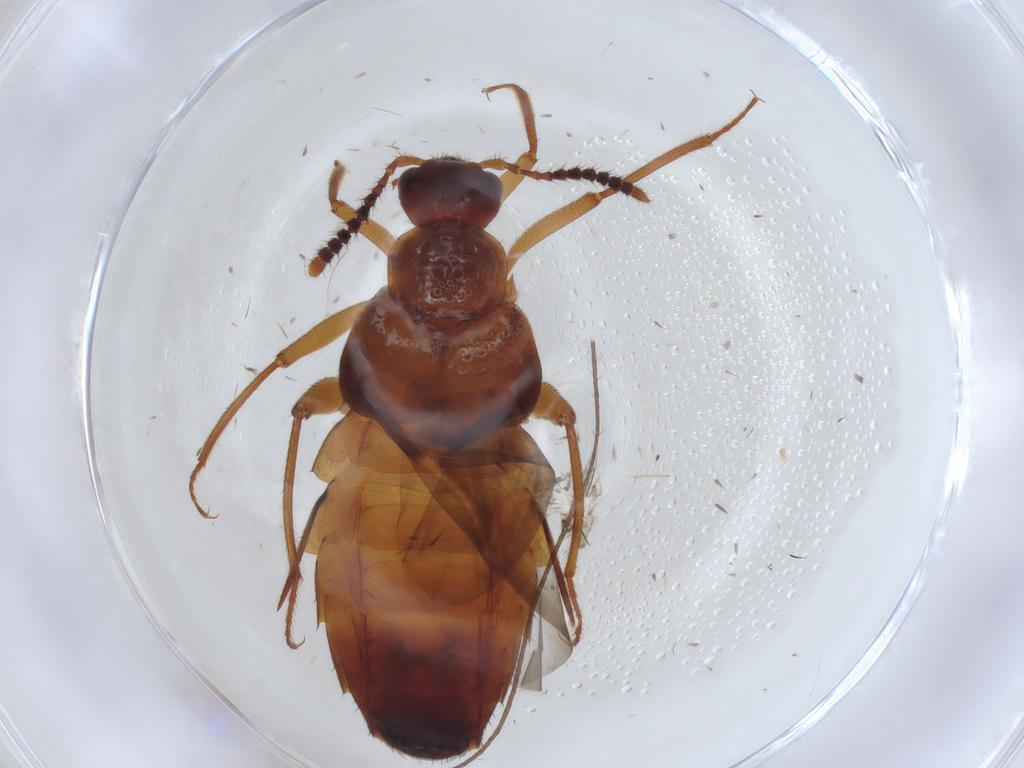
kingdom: Animalia
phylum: Arthropoda
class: Insecta
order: Coleoptera
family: Staphylinidae
